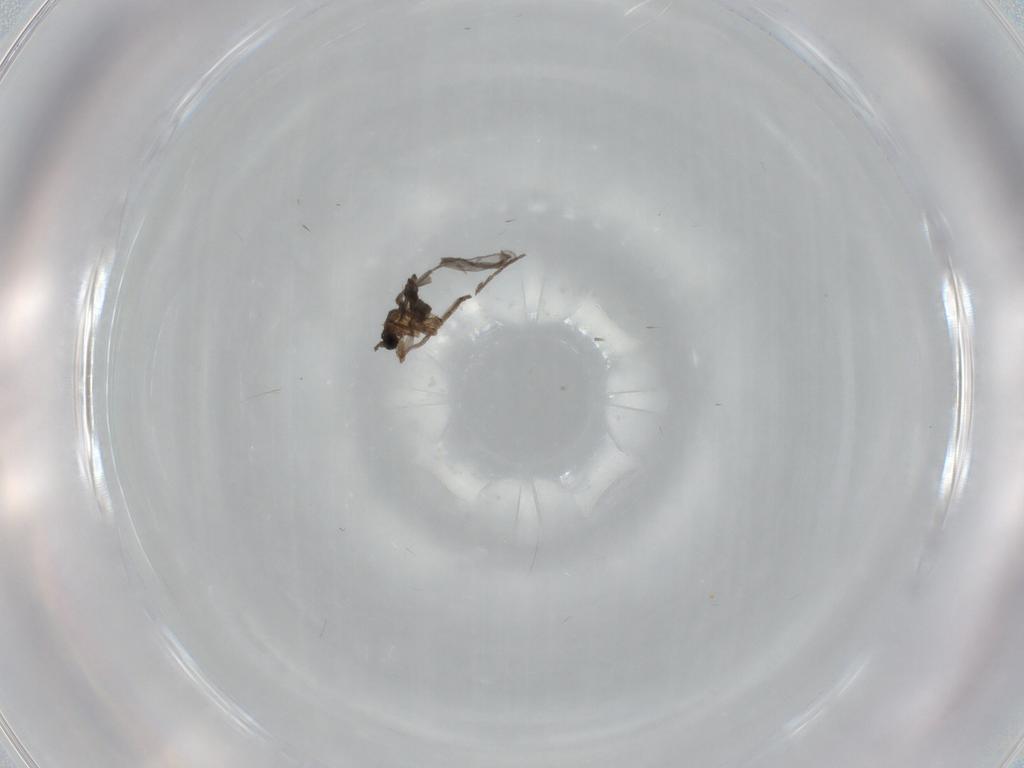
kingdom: Animalia
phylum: Arthropoda
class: Insecta
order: Diptera
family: Sciaridae
